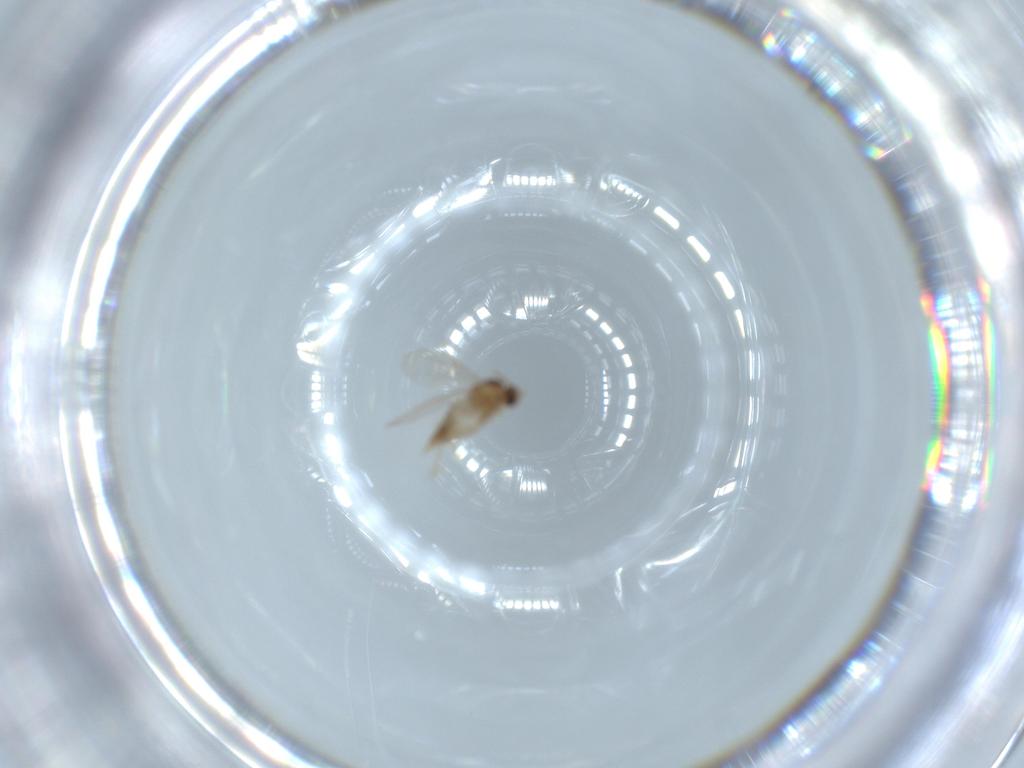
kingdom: Animalia
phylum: Arthropoda
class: Insecta
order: Diptera
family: Cecidomyiidae
